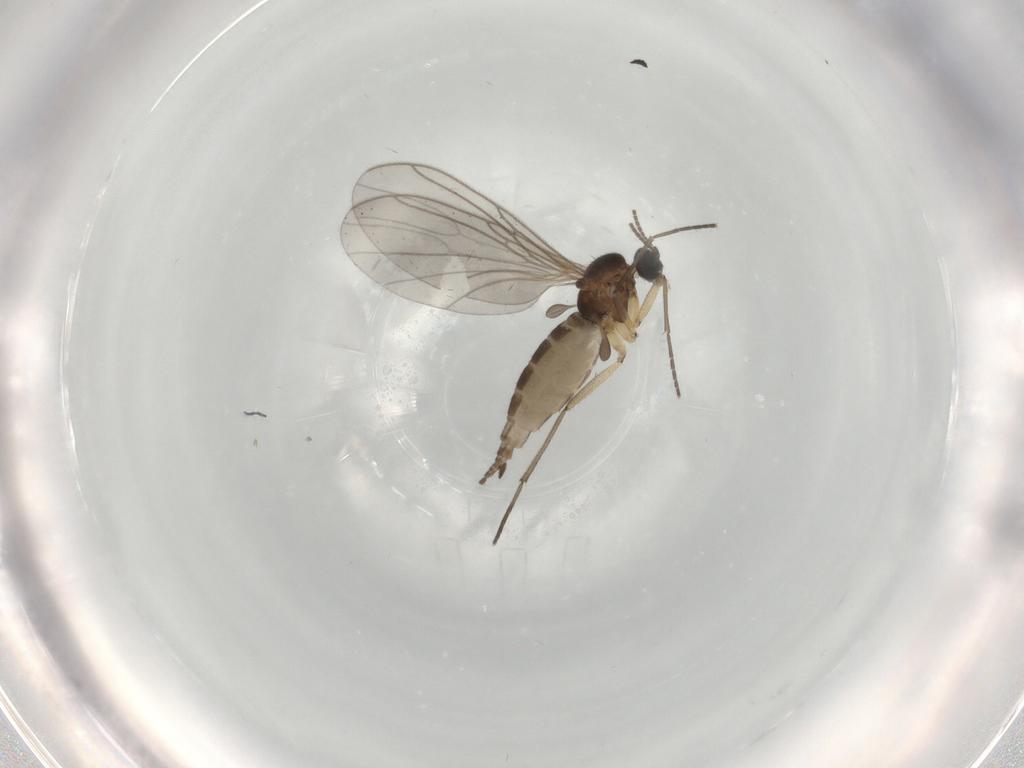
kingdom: Animalia
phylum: Arthropoda
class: Insecta
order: Diptera
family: Sciaridae
